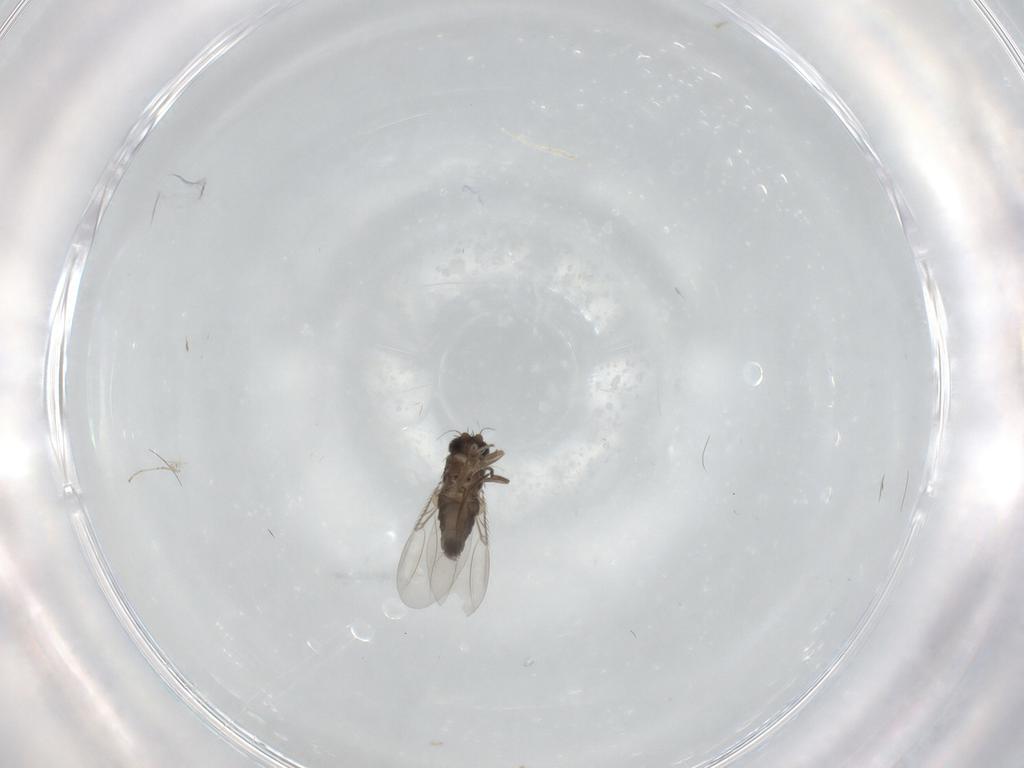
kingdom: Animalia
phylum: Arthropoda
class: Insecta
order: Diptera
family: Phoridae
